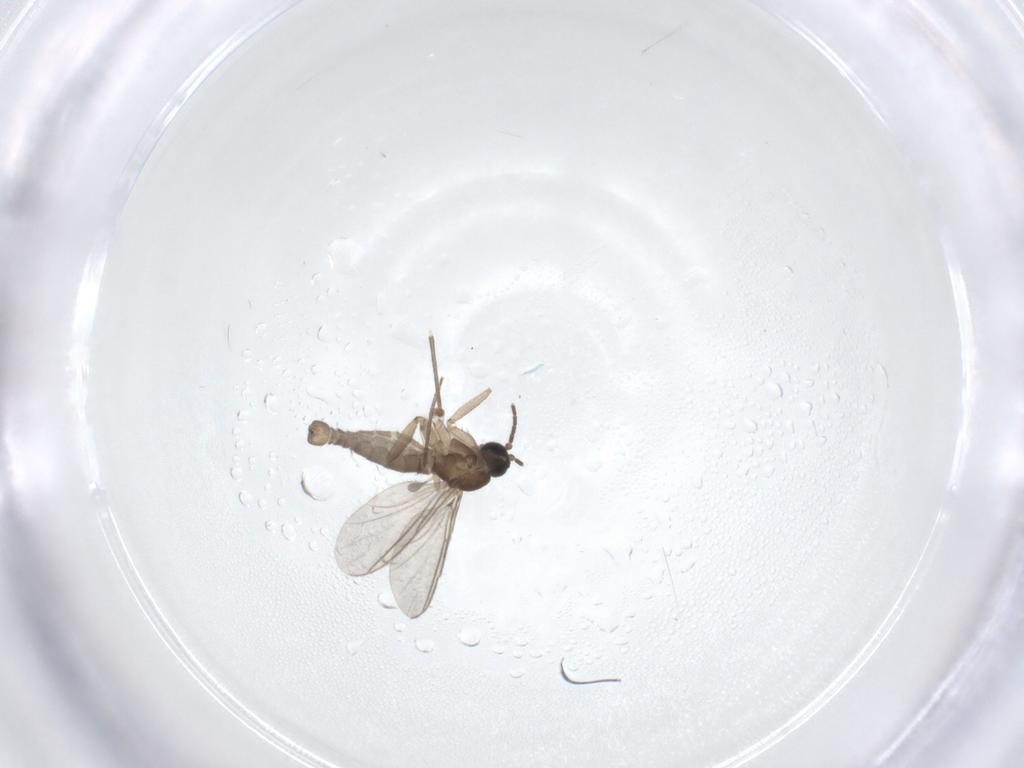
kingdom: Animalia
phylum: Arthropoda
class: Insecta
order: Diptera
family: Sciaridae
